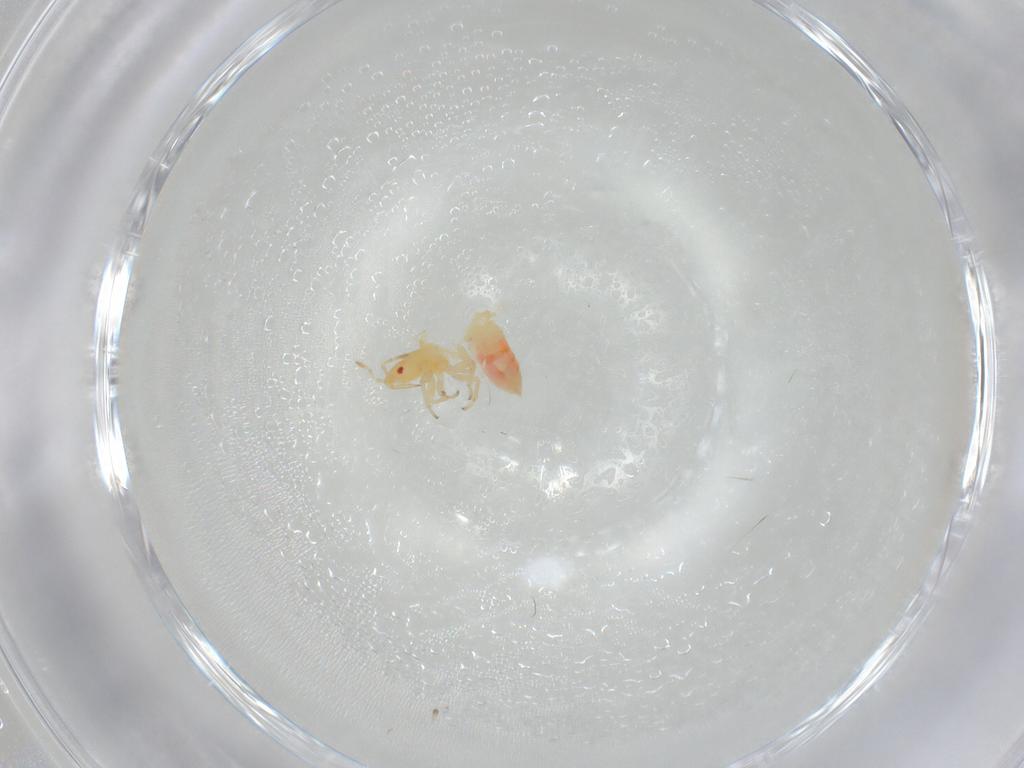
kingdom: Animalia
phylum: Arthropoda
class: Insecta
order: Hemiptera
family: Anthocoridae
